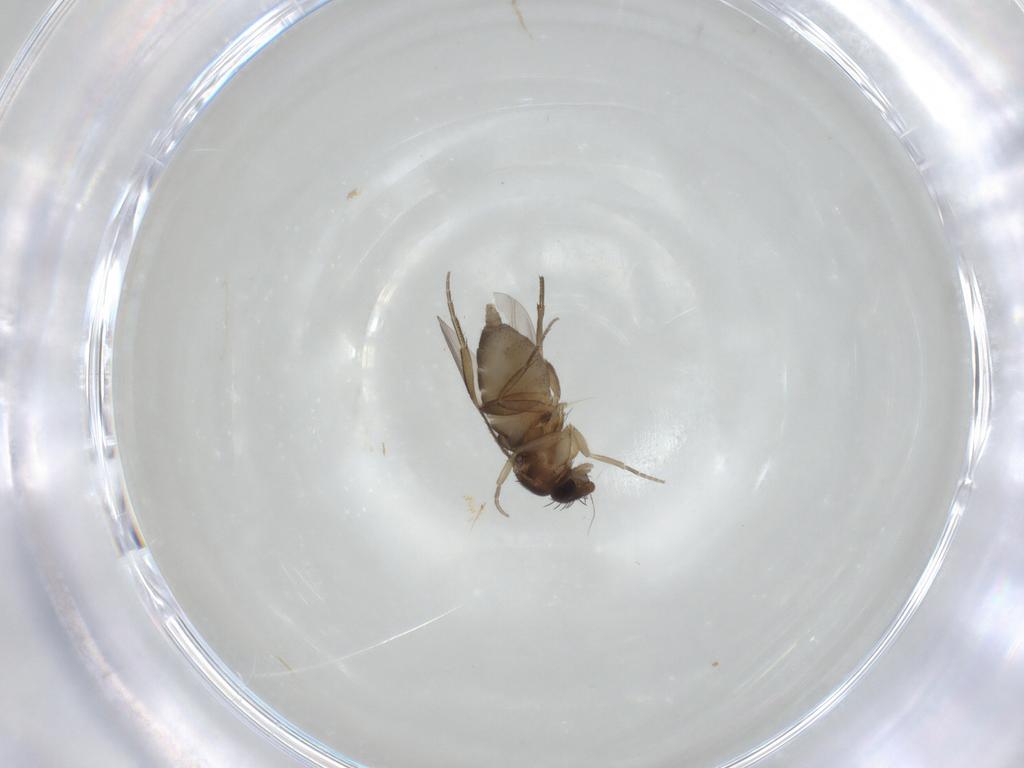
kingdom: Animalia
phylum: Arthropoda
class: Insecta
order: Diptera
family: Phoridae
